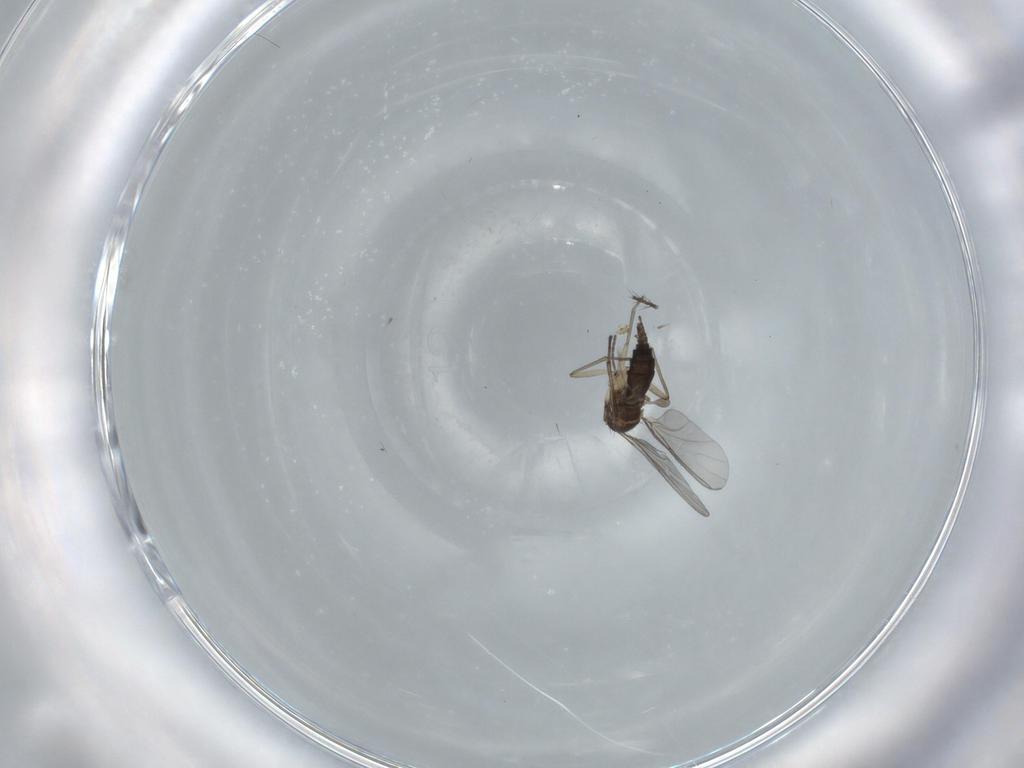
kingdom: Animalia
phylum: Arthropoda
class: Insecta
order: Diptera
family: Sciaridae
